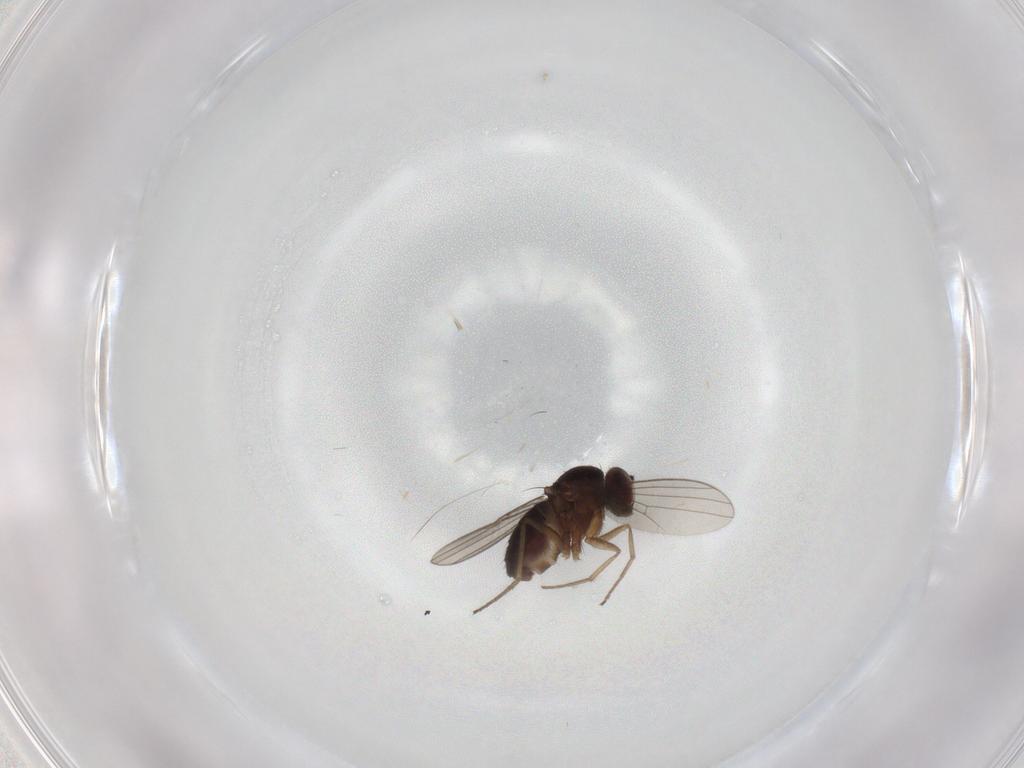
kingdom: Animalia
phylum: Arthropoda
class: Insecta
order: Diptera
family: Dolichopodidae
